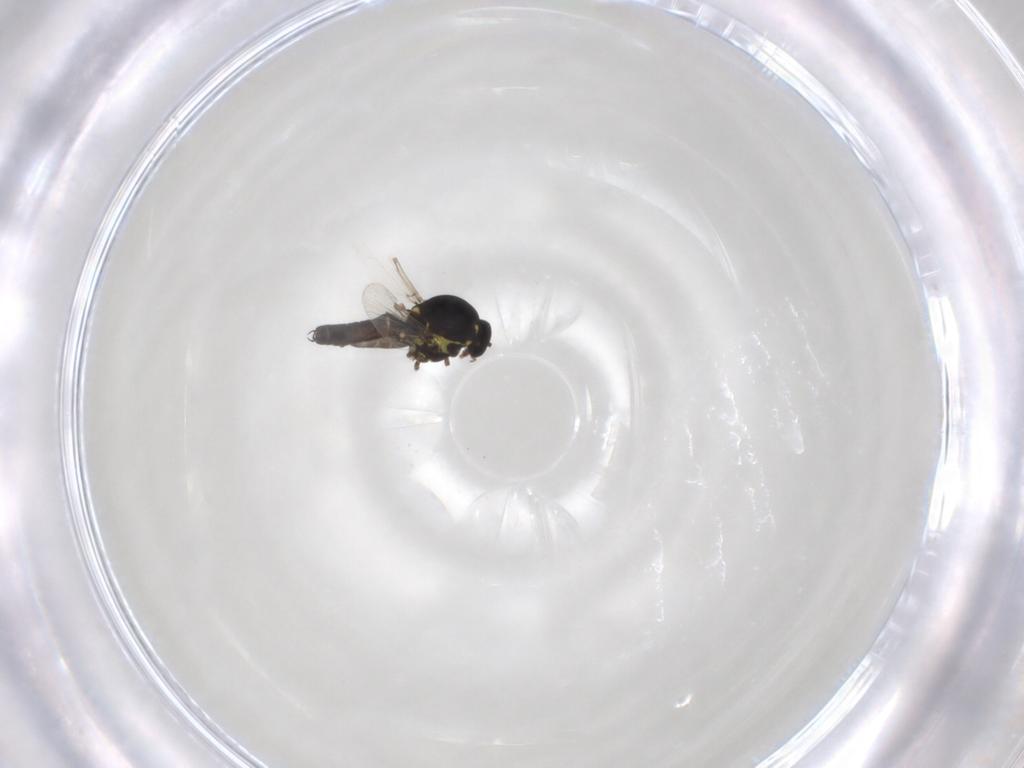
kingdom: Animalia
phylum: Arthropoda
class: Insecta
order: Diptera
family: Ceratopogonidae
